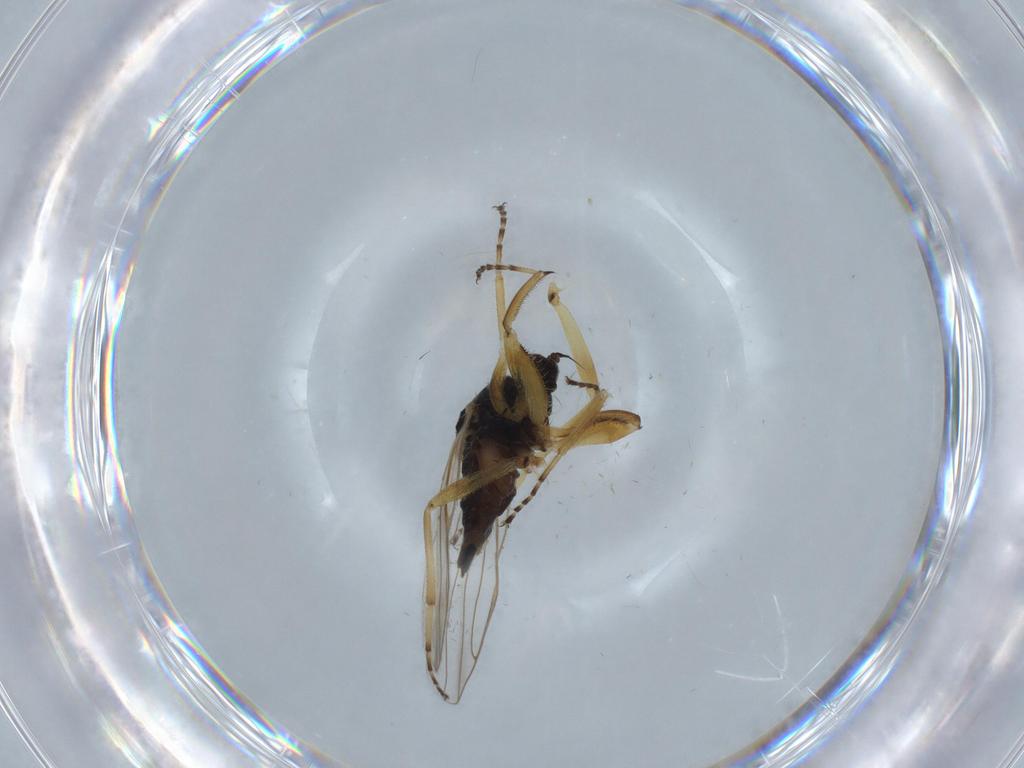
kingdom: Animalia
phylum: Arthropoda
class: Insecta
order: Diptera
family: Hybotidae
